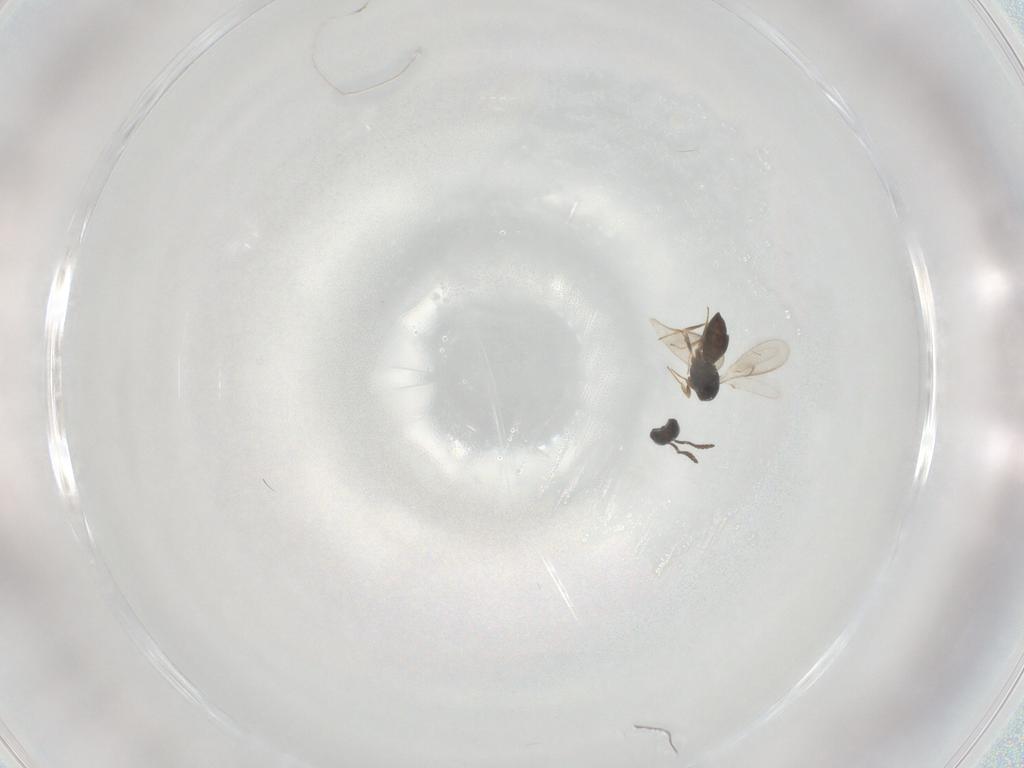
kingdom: Animalia
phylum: Arthropoda
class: Insecta
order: Hymenoptera
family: Scelionidae
